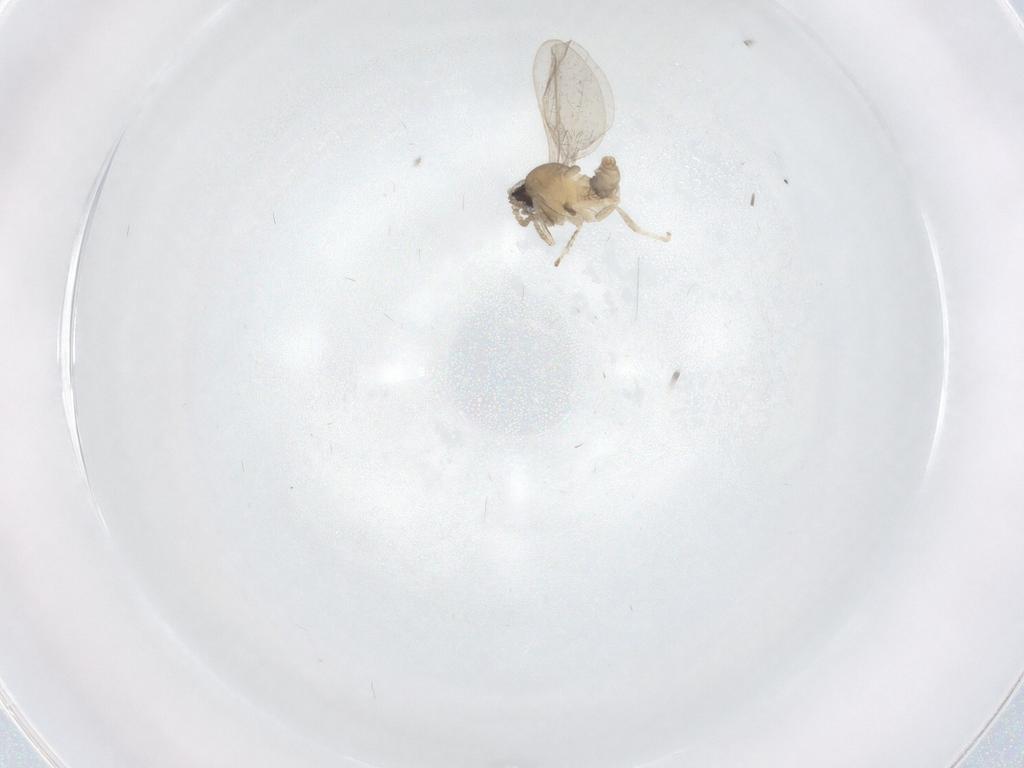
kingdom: Animalia
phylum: Arthropoda
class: Insecta
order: Diptera
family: Cecidomyiidae
